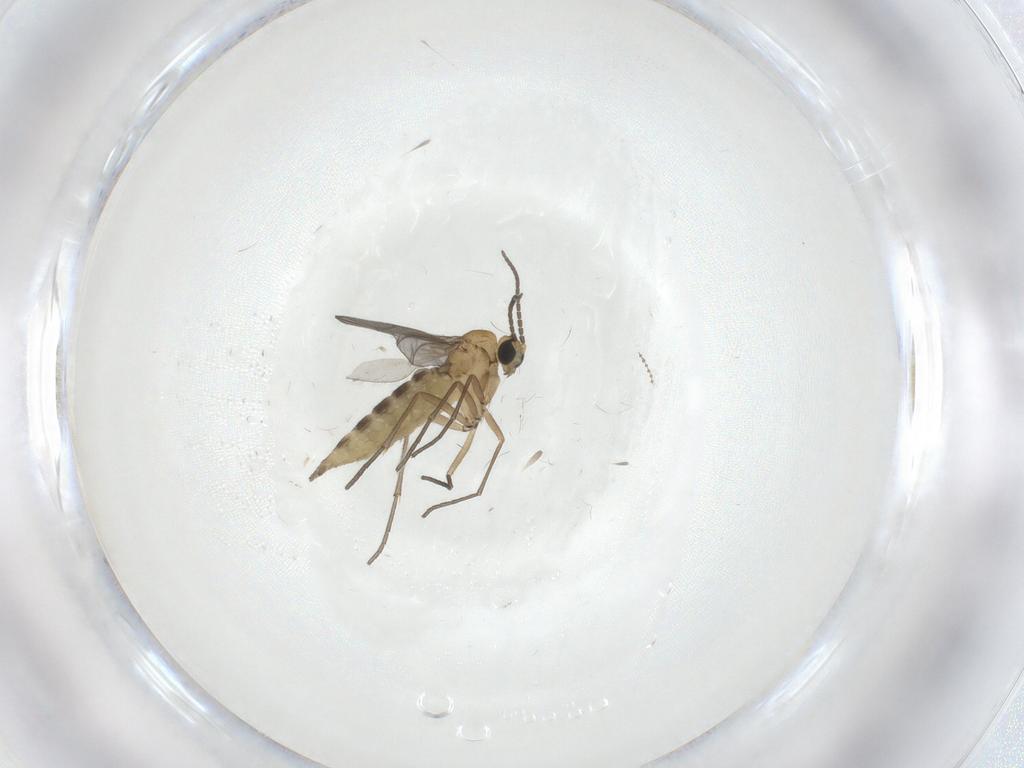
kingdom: Animalia
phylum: Arthropoda
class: Insecta
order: Diptera
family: Sciaridae
